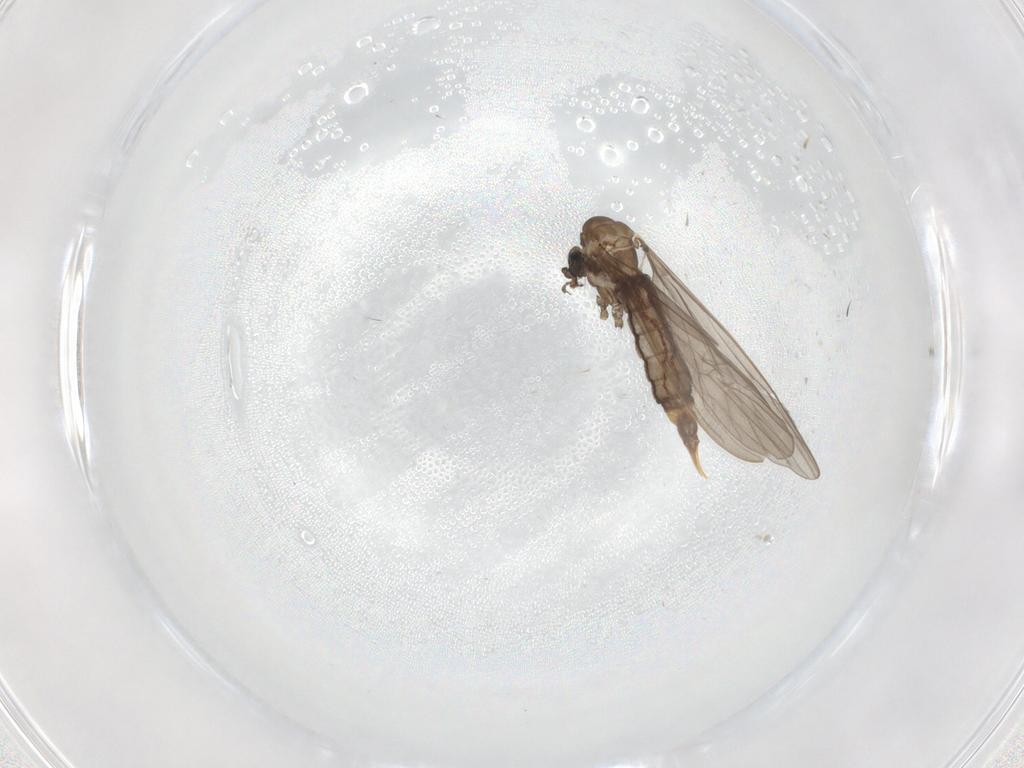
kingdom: Animalia
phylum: Arthropoda
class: Insecta
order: Diptera
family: Limoniidae
